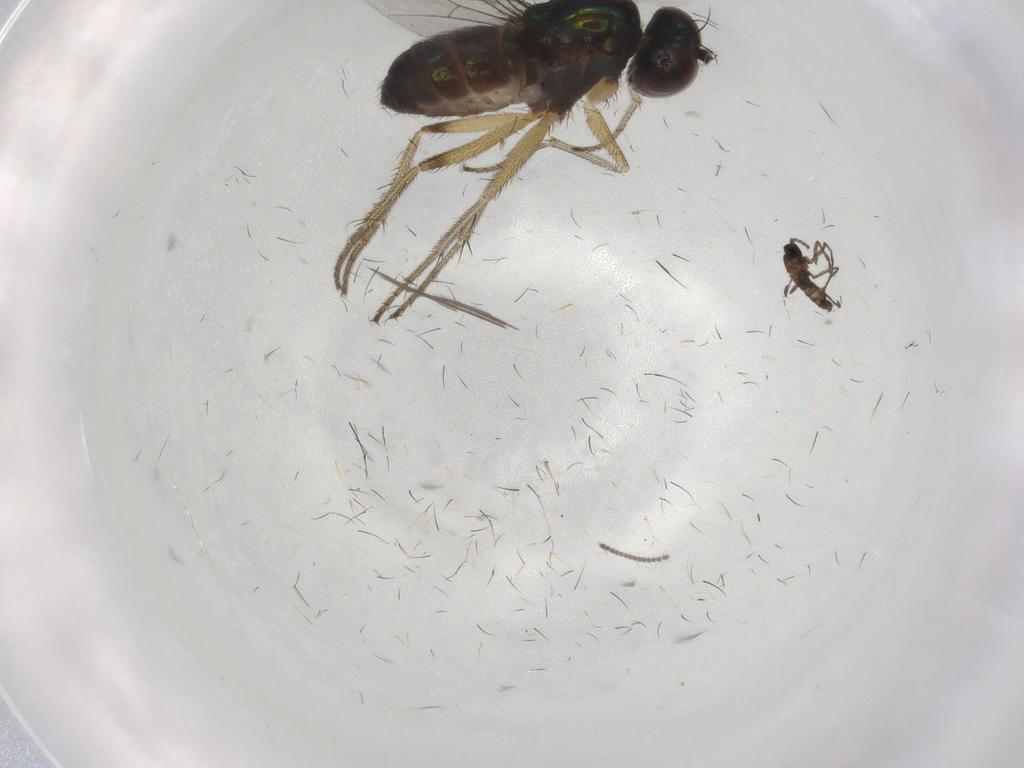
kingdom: Animalia
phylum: Arthropoda
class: Insecta
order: Diptera
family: Dolichopodidae
